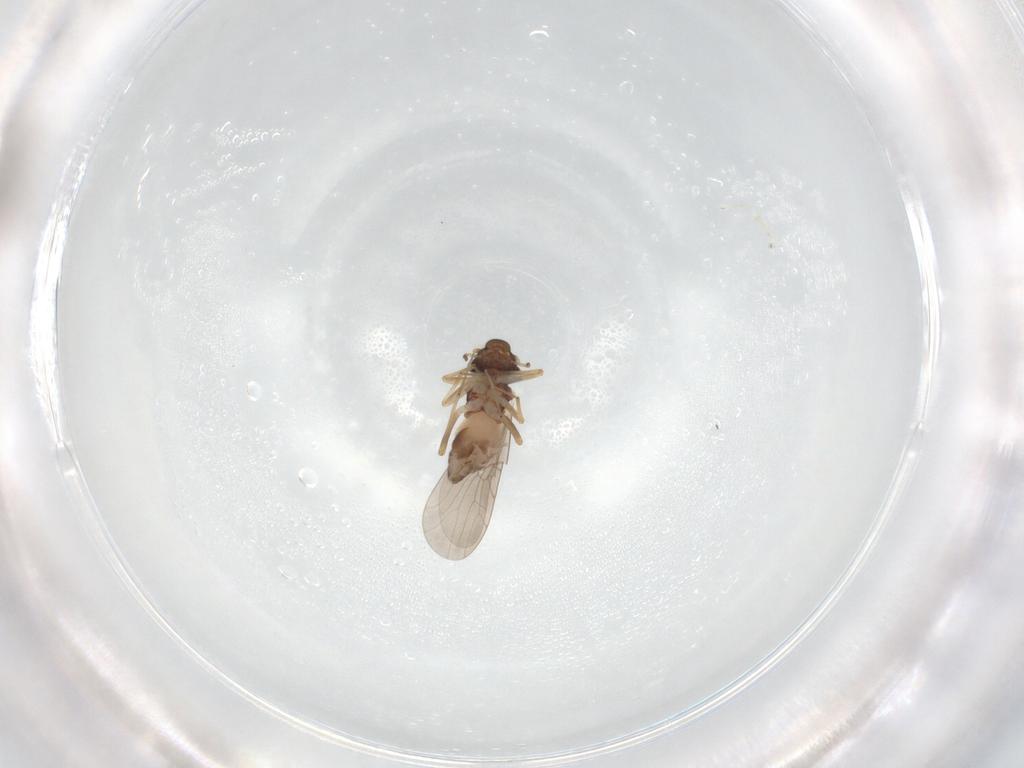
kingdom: Animalia
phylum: Arthropoda
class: Insecta
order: Psocodea
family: Lepidopsocidae
